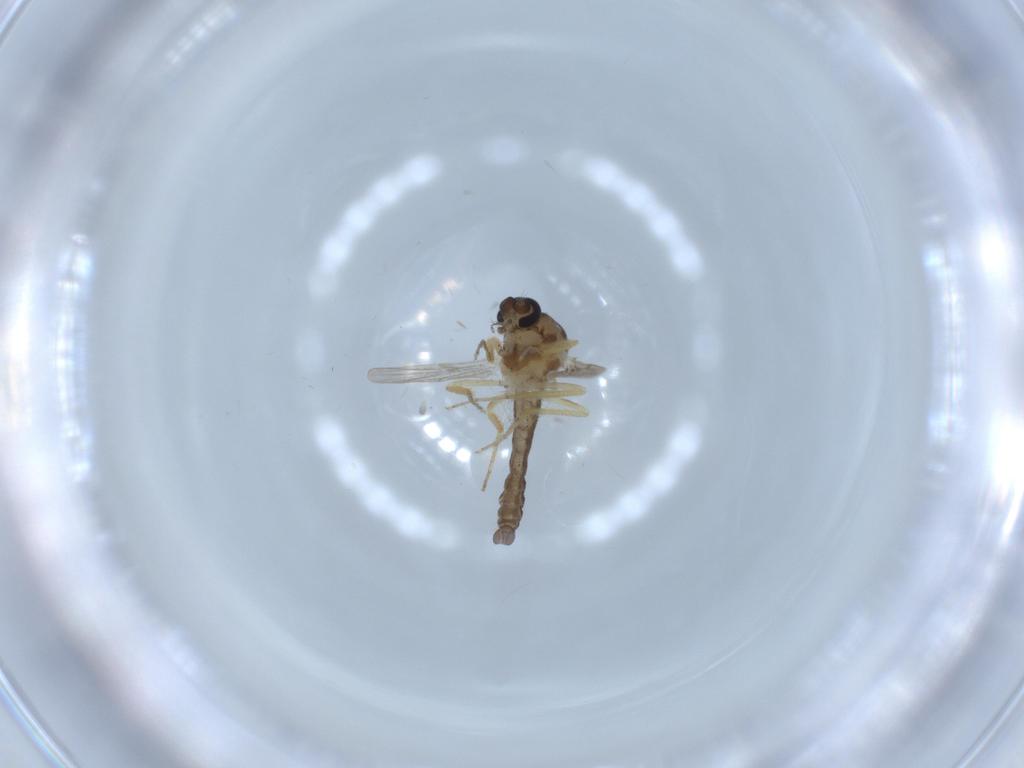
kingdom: Animalia
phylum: Arthropoda
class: Insecta
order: Diptera
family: Ceratopogonidae
